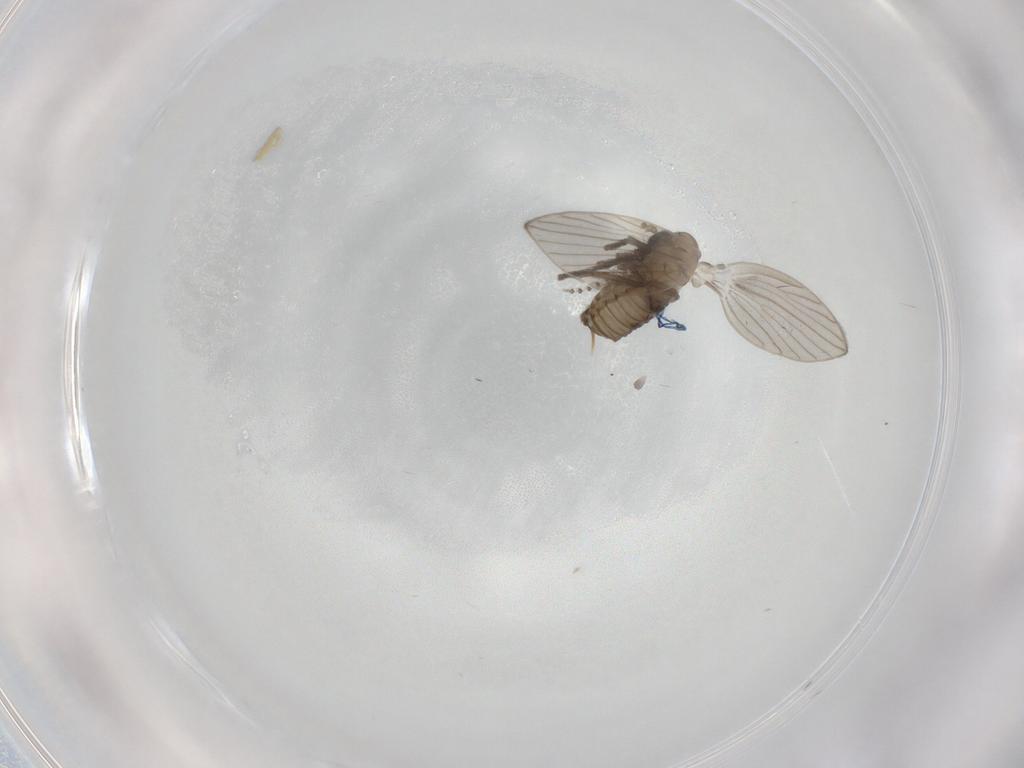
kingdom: Animalia
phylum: Arthropoda
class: Insecta
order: Diptera
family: Psychodidae
